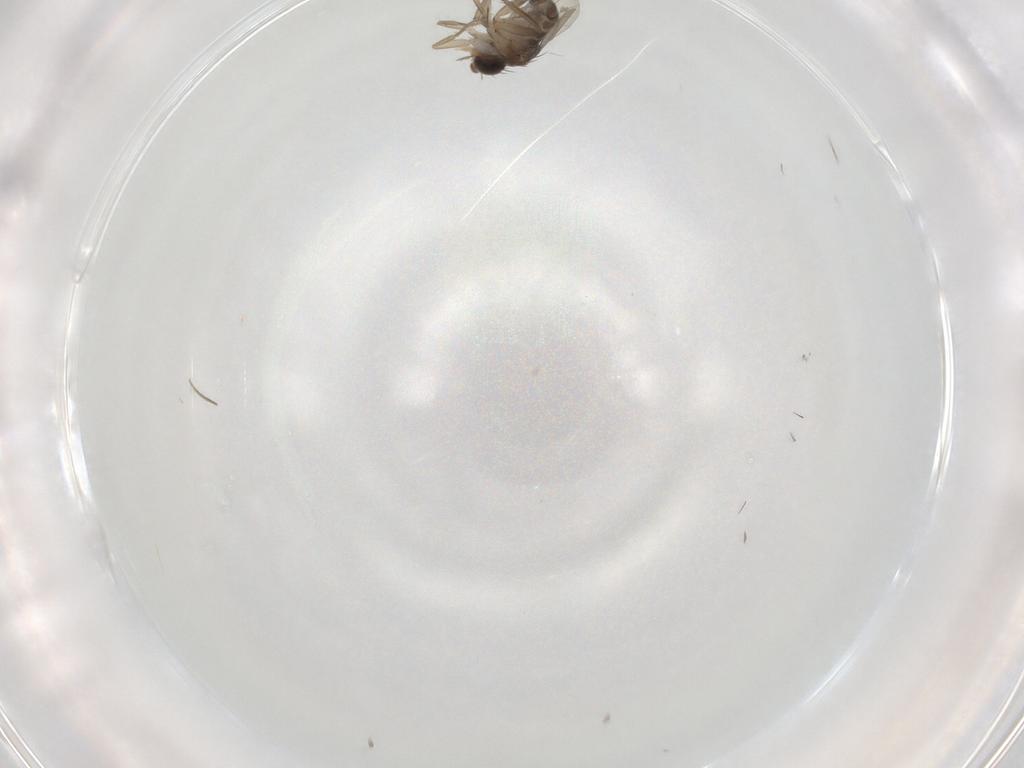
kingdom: Animalia
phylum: Arthropoda
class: Insecta
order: Diptera
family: Phoridae
